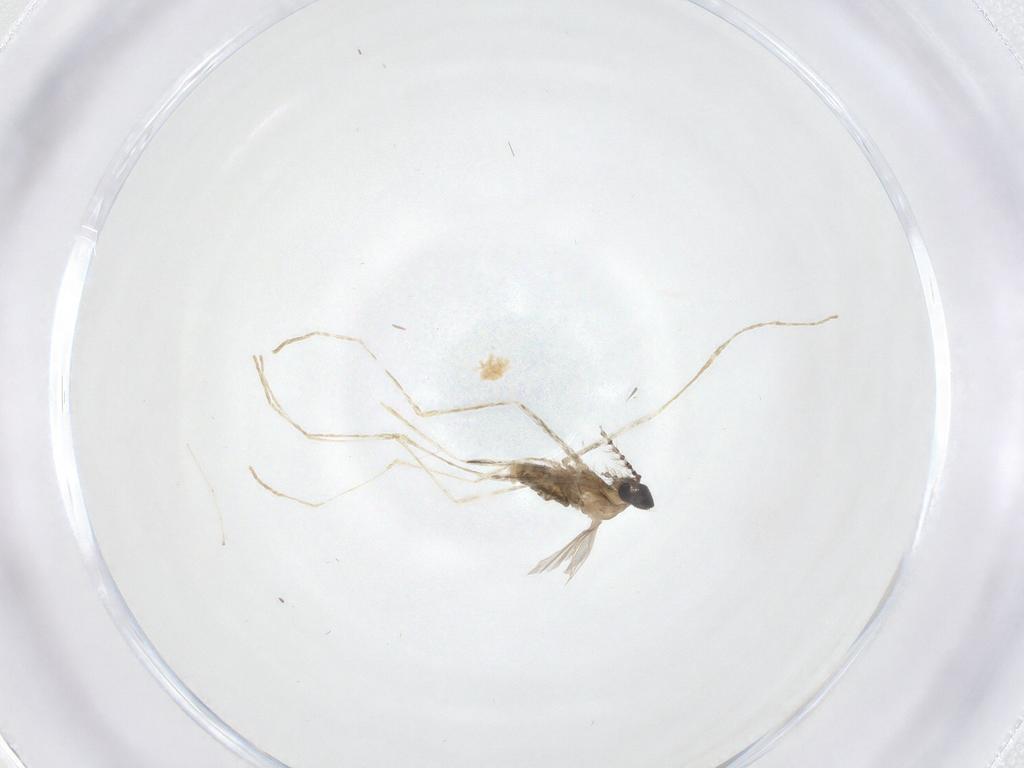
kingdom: Animalia
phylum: Arthropoda
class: Insecta
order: Diptera
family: Cecidomyiidae
